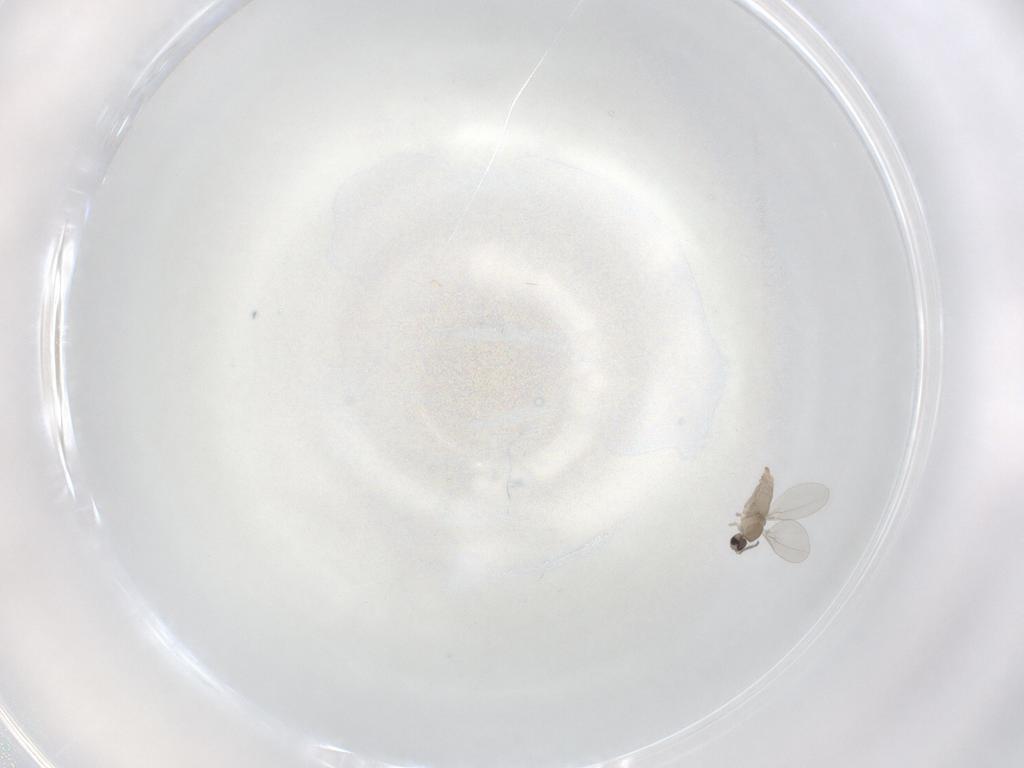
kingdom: Animalia
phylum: Arthropoda
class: Insecta
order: Diptera
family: Cecidomyiidae
